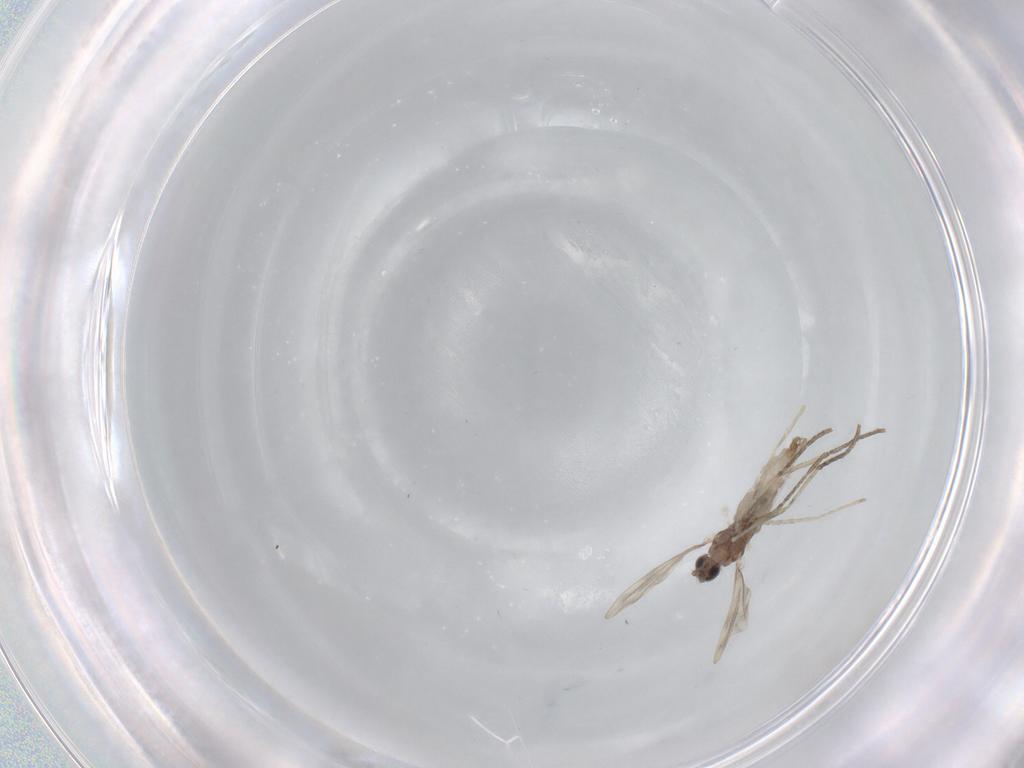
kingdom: Animalia
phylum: Arthropoda
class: Insecta
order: Diptera
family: Cecidomyiidae
